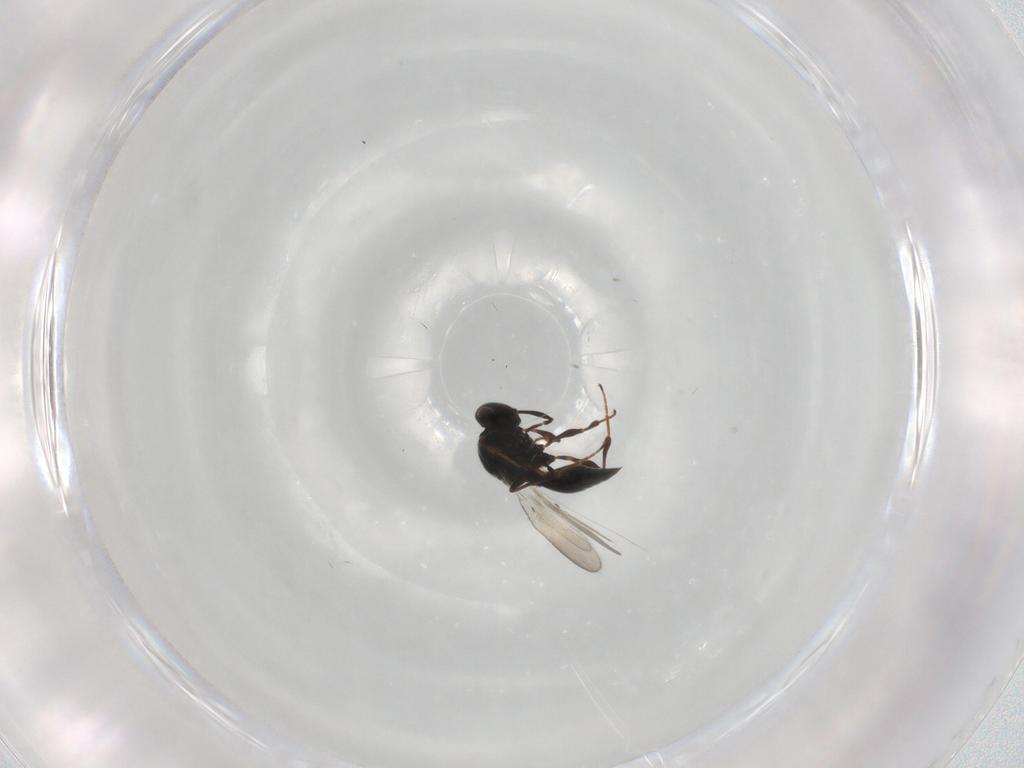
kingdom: Animalia
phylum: Arthropoda
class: Insecta
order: Hymenoptera
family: Platygastridae
